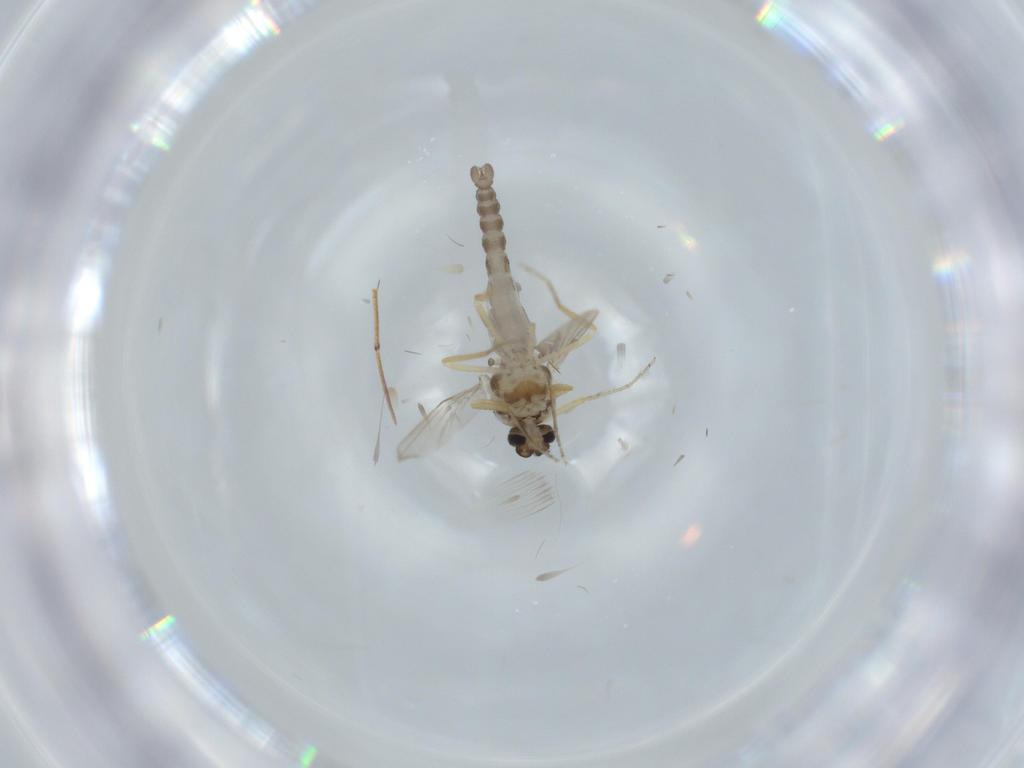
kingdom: Animalia
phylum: Arthropoda
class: Insecta
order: Diptera
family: Ceratopogonidae
